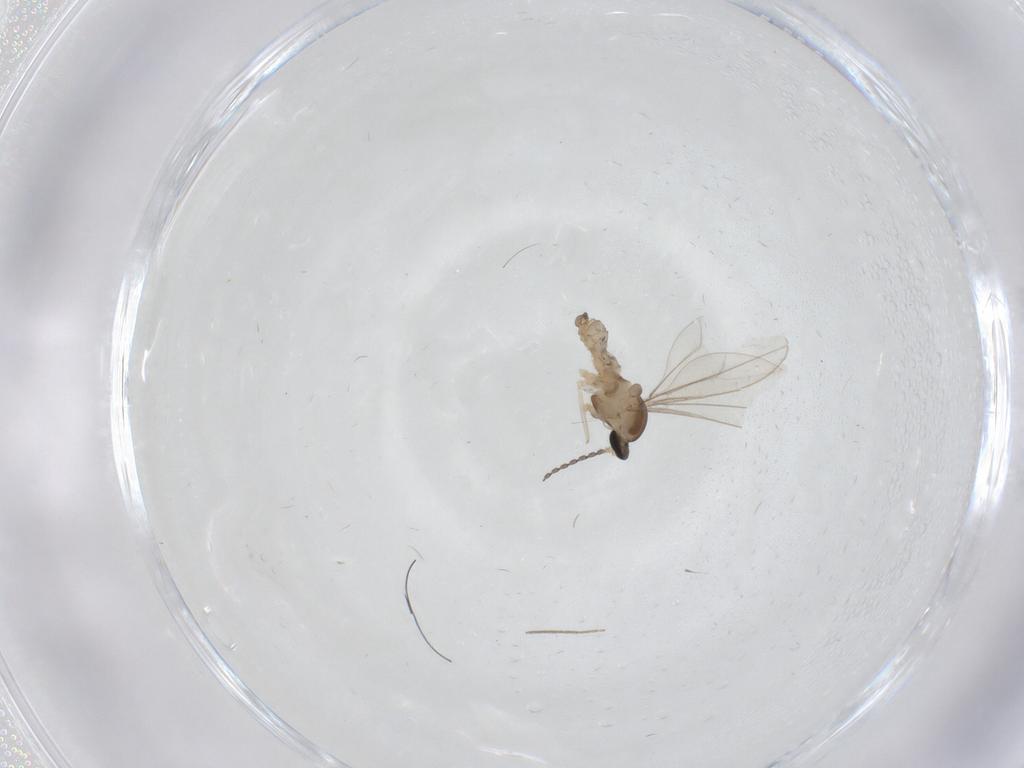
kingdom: Animalia
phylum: Arthropoda
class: Insecta
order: Diptera
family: Chironomidae
